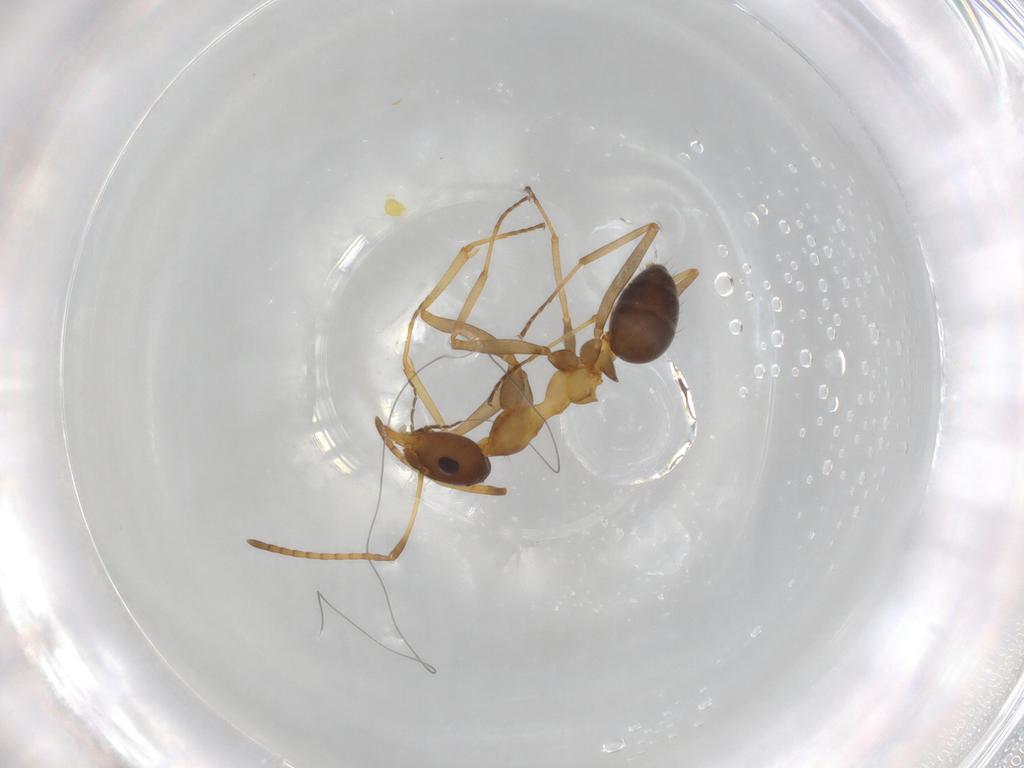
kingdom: Animalia
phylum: Arthropoda
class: Insecta
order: Hymenoptera
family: Formicidae
